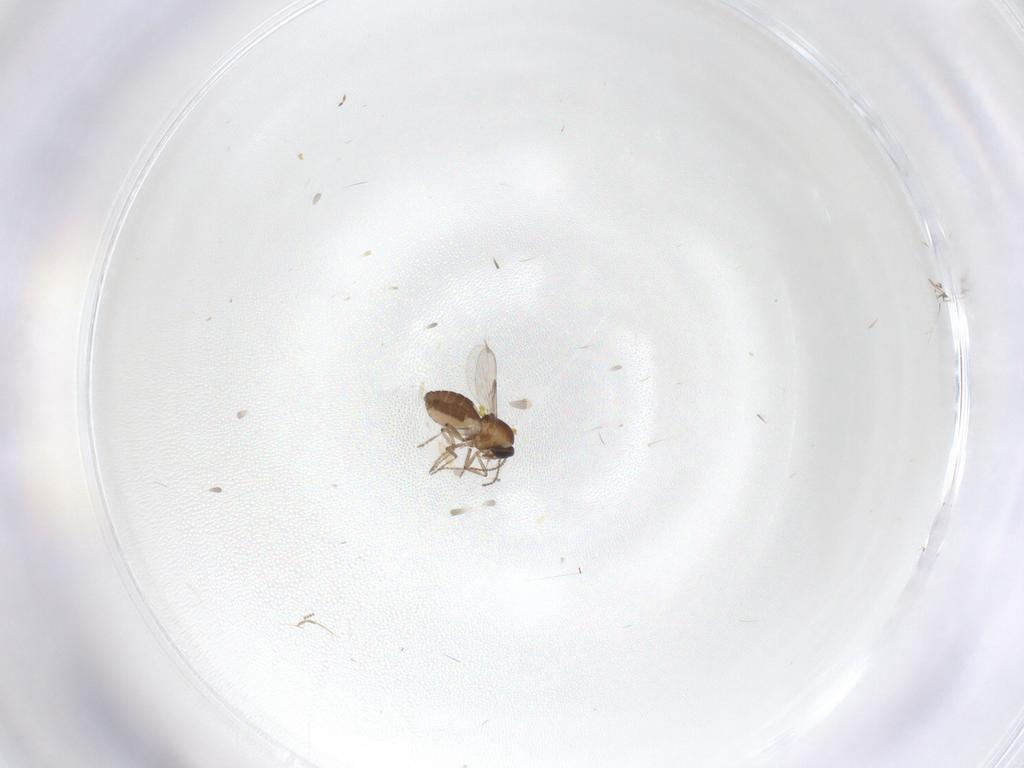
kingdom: Animalia
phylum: Arthropoda
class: Insecta
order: Diptera
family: Cecidomyiidae
